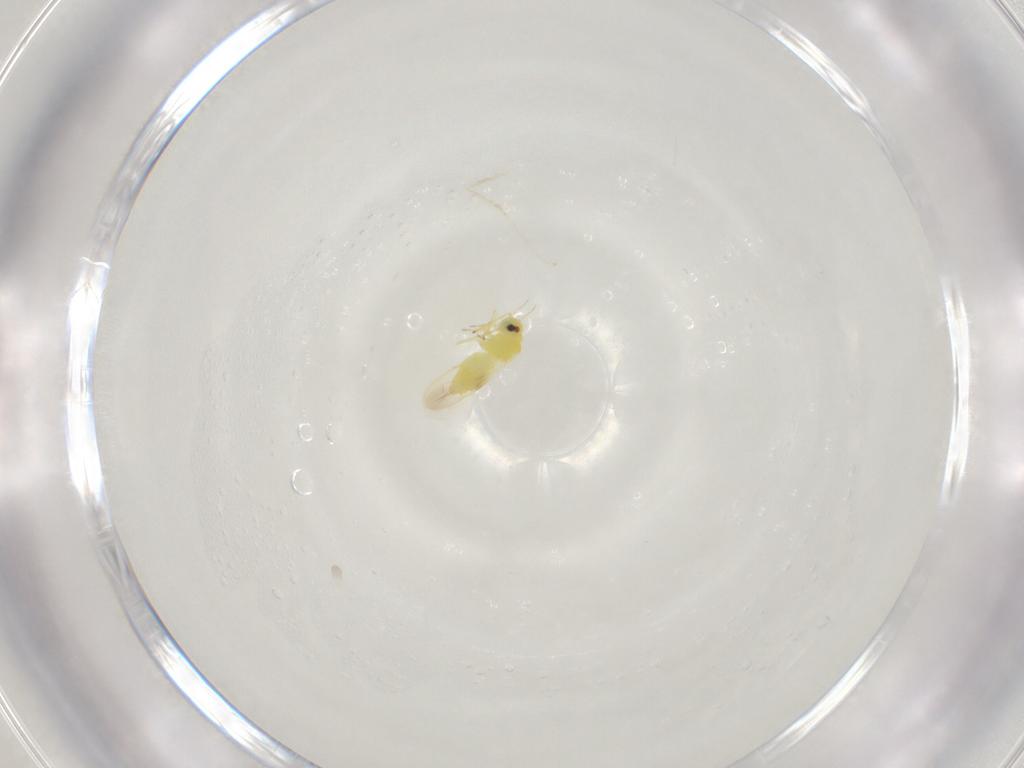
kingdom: Animalia
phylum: Arthropoda
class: Insecta
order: Diptera
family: Cecidomyiidae
